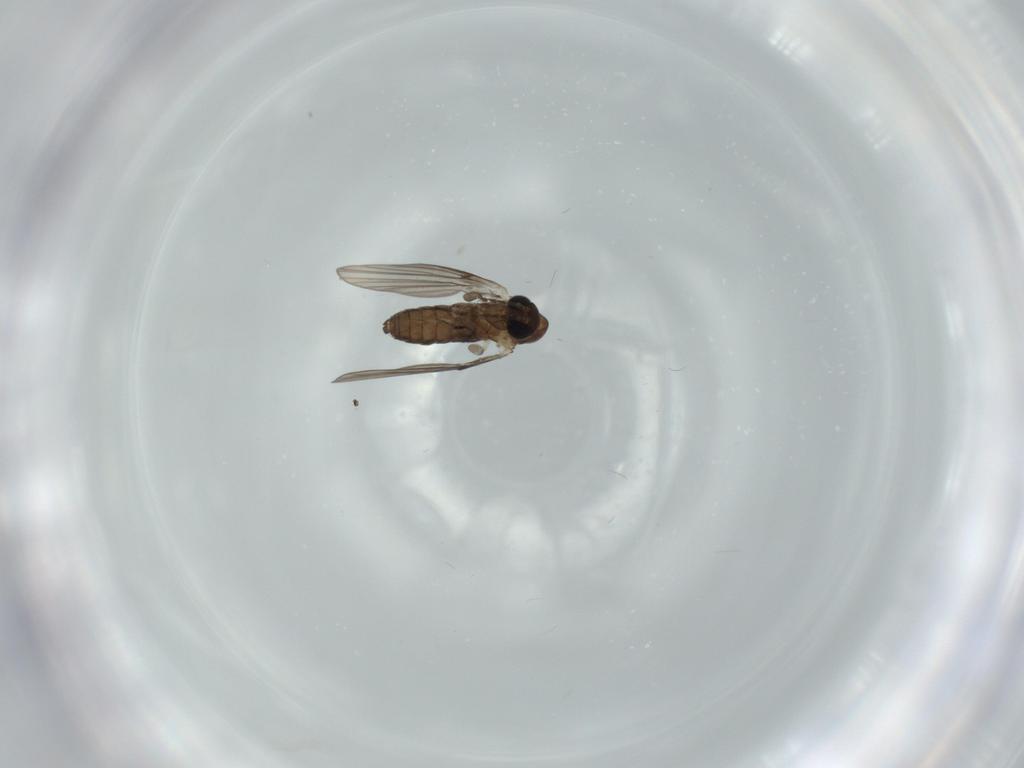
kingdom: Animalia
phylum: Arthropoda
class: Insecta
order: Diptera
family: Psychodidae
